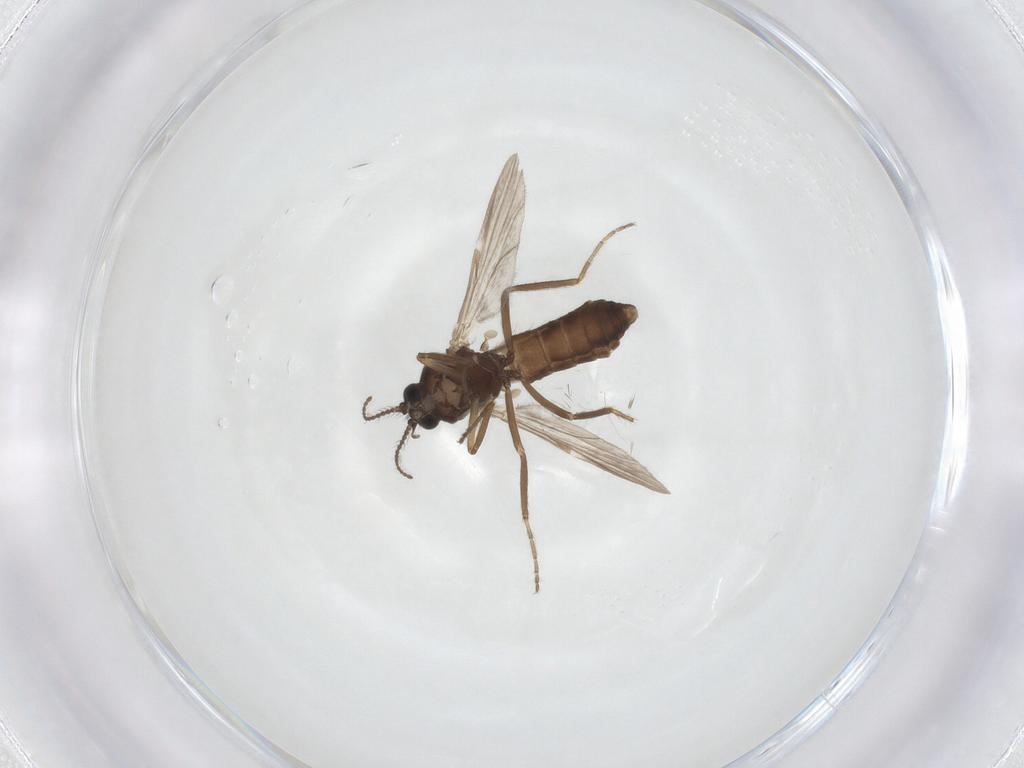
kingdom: Animalia
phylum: Arthropoda
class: Insecta
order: Diptera
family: Ceratopogonidae
